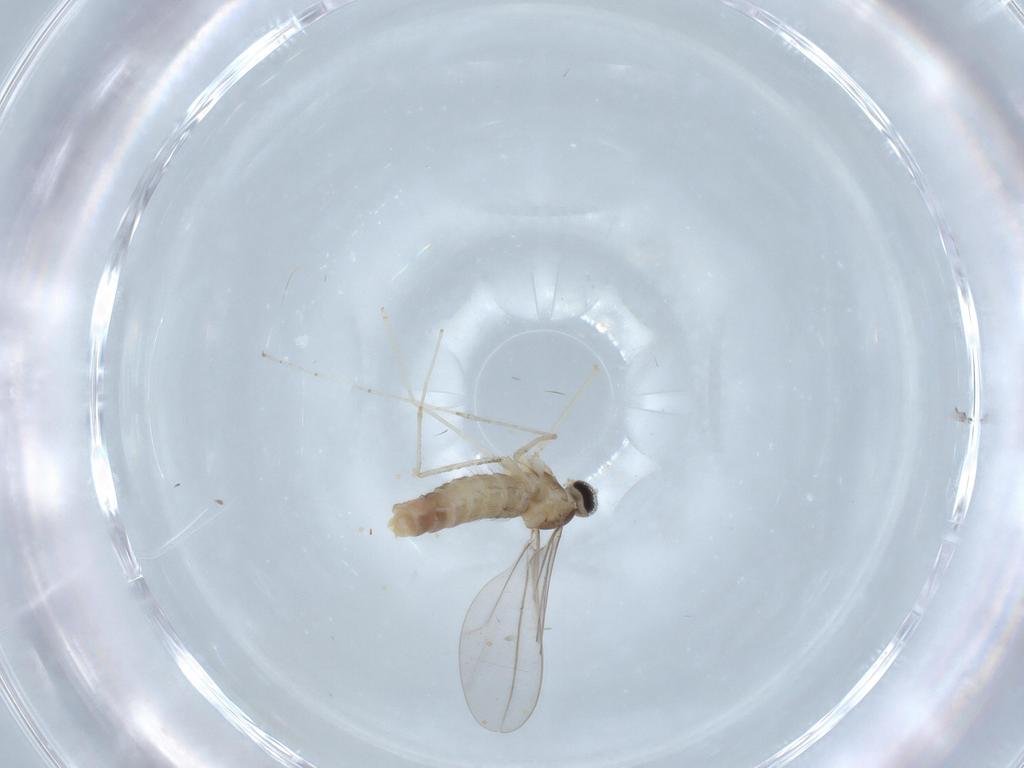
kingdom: Animalia
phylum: Arthropoda
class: Insecta
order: Diptera
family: Cecidomyiidae
